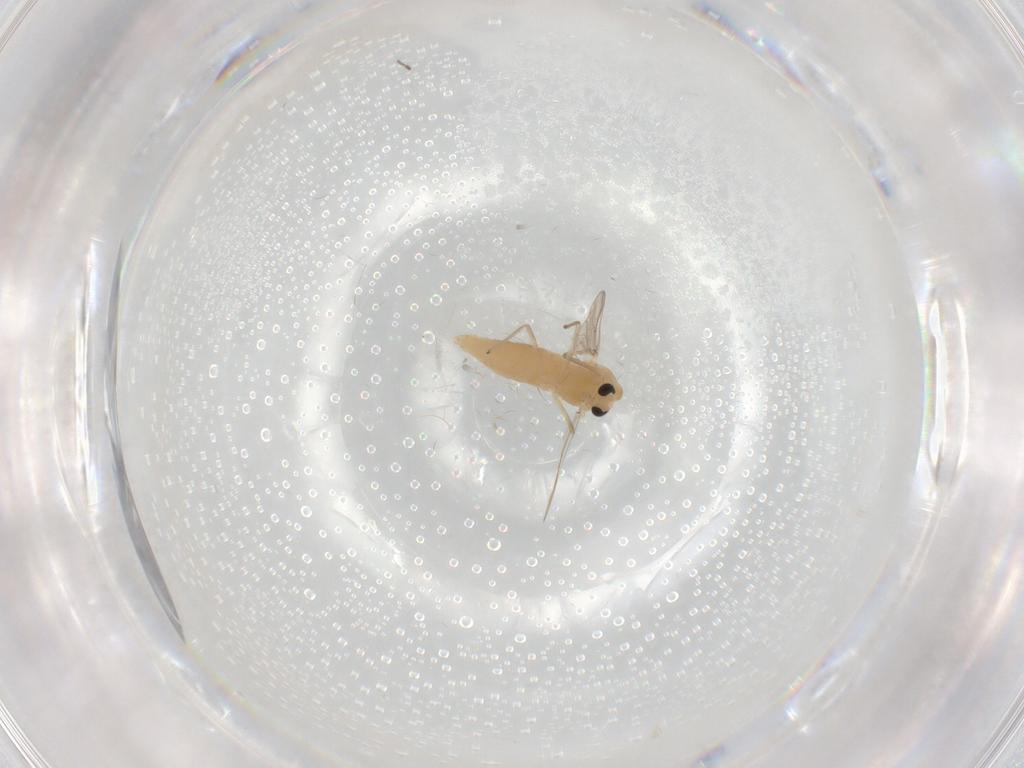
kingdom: Animalia
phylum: Arthropoda
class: Insecta
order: Diptera
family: Chironomidae
